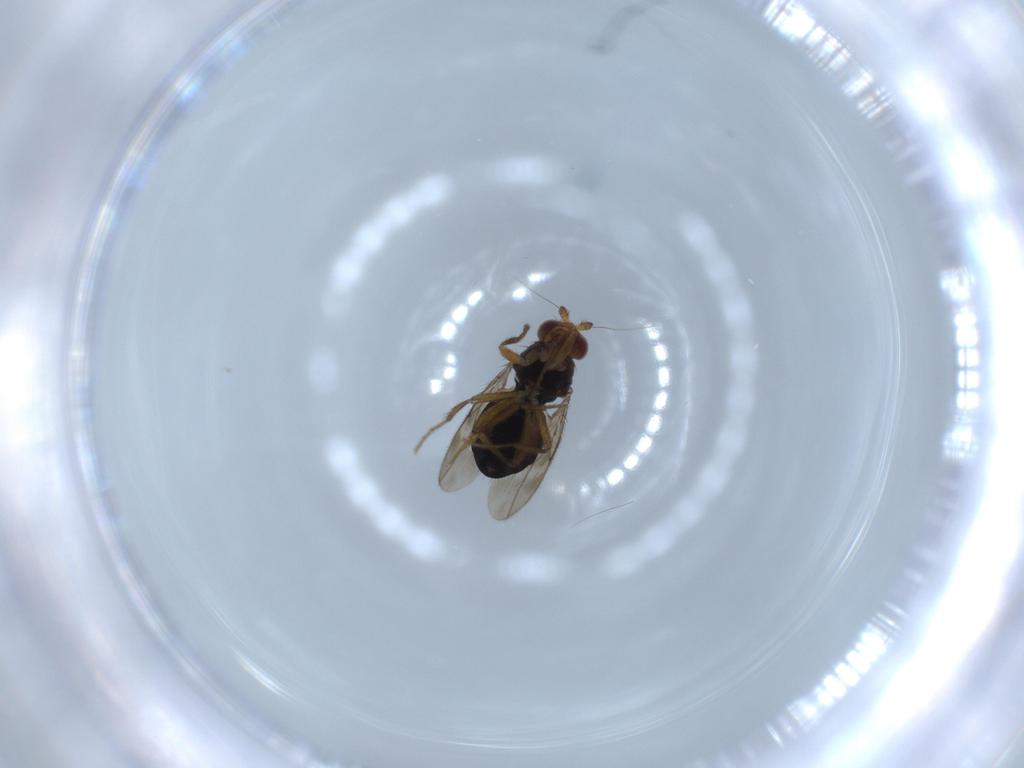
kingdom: Animalia
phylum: Arthropoda
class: Insecta
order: Diptera
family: Sphaeroceridae
